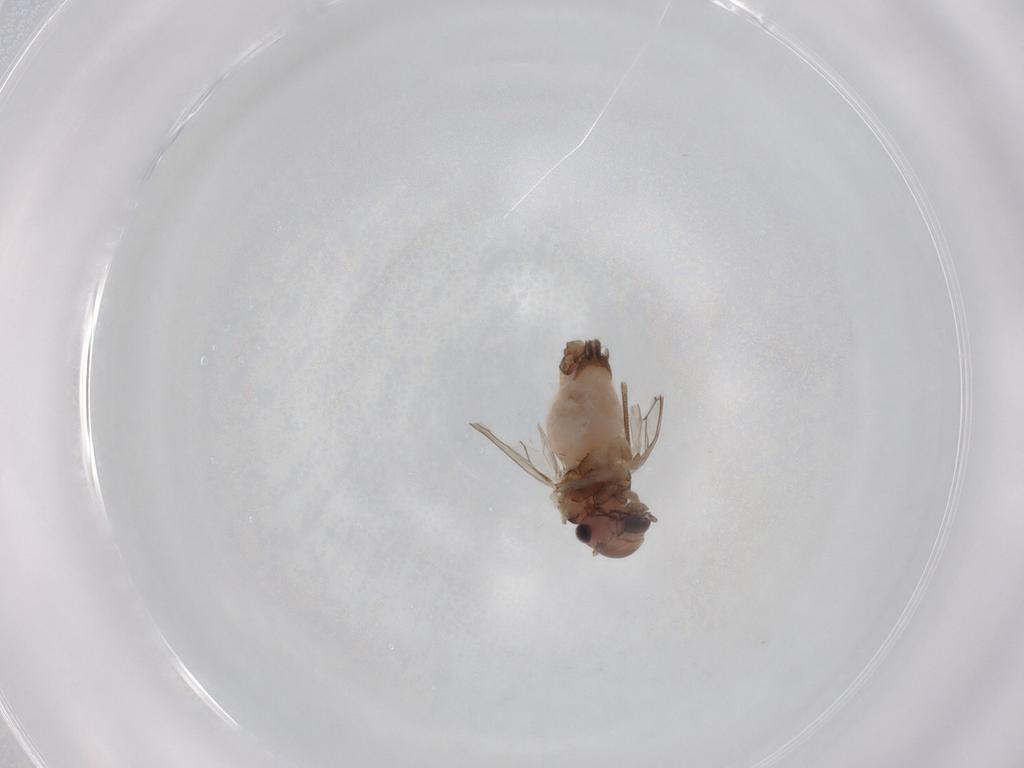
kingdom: Animalia
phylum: Arthropoda
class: Insecta
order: Psocodea
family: Peripsocidae
